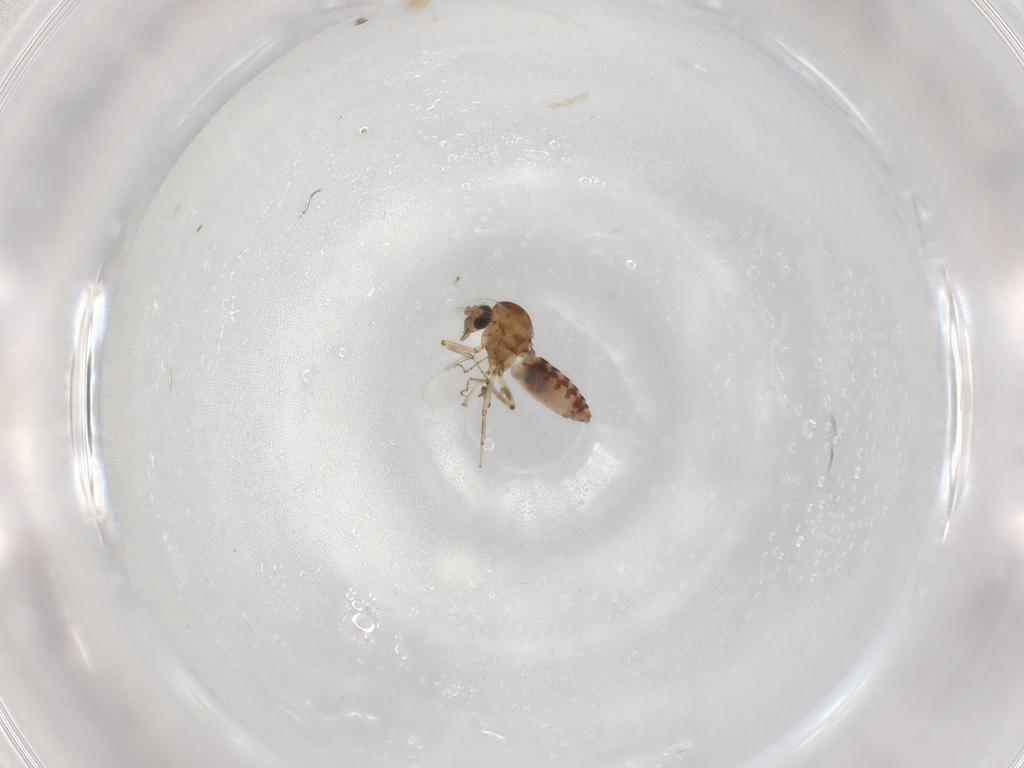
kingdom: Animalia
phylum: Arthropoda
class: Insecta
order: Diptera
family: Ceratopogonidae
